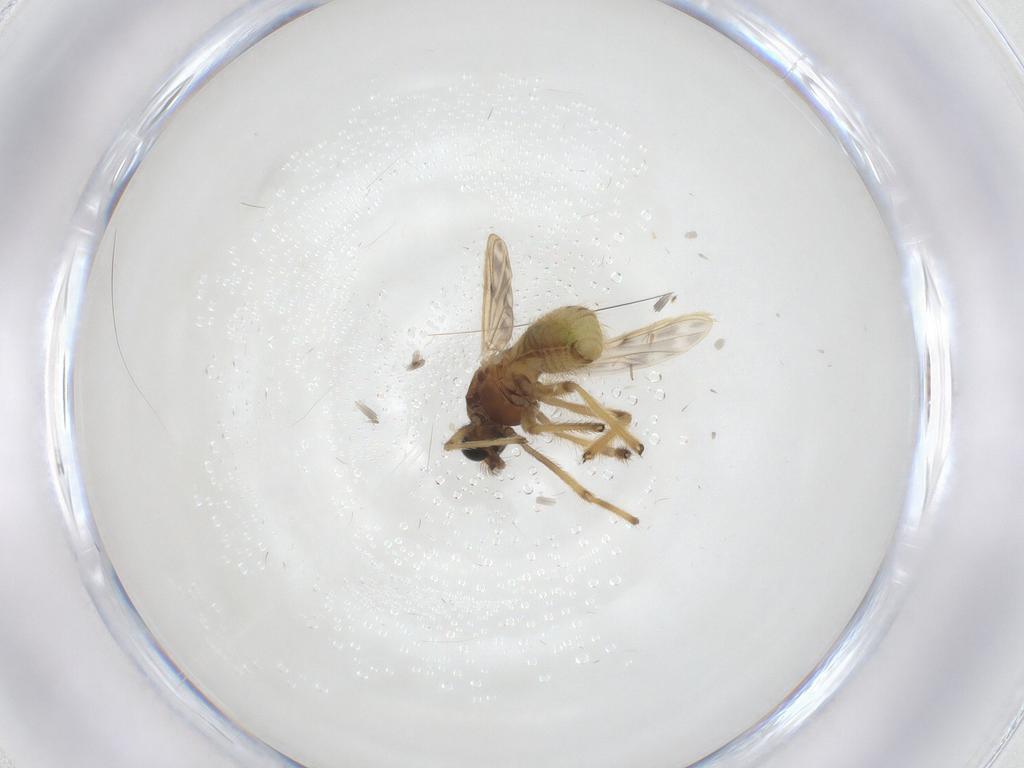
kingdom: Animalia
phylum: Arthropoda
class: Insecta
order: Diptera
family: Chironomidae
